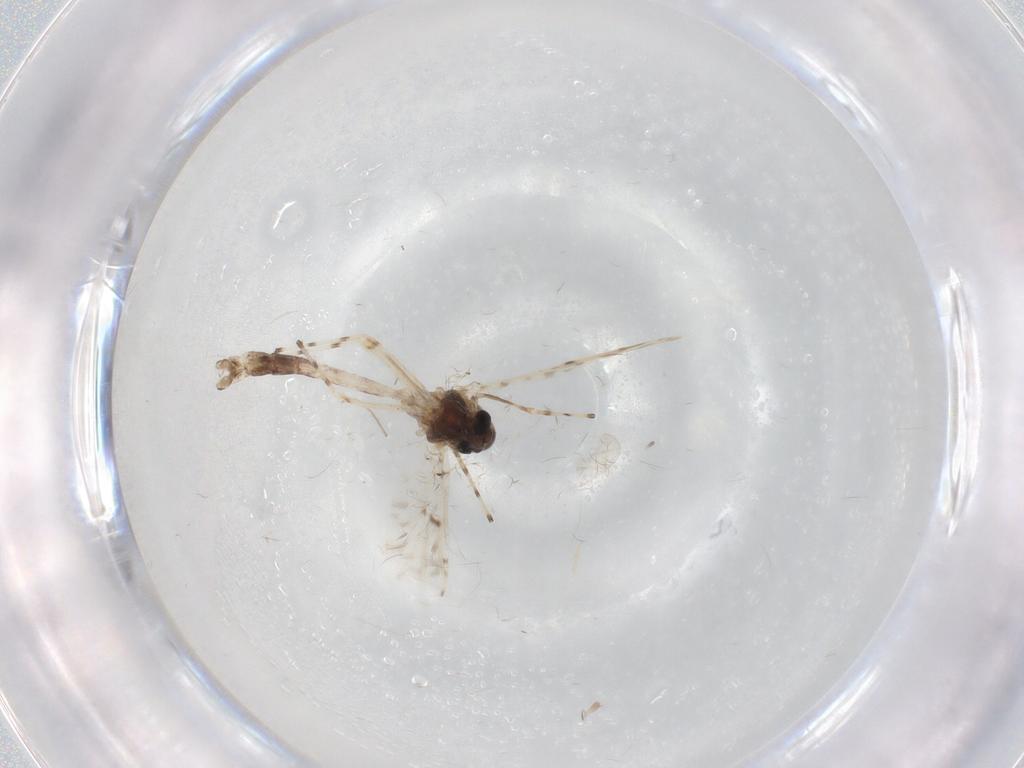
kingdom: Animalia
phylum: Arthropoda
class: Insecta
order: Diptera
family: Chironomidae
